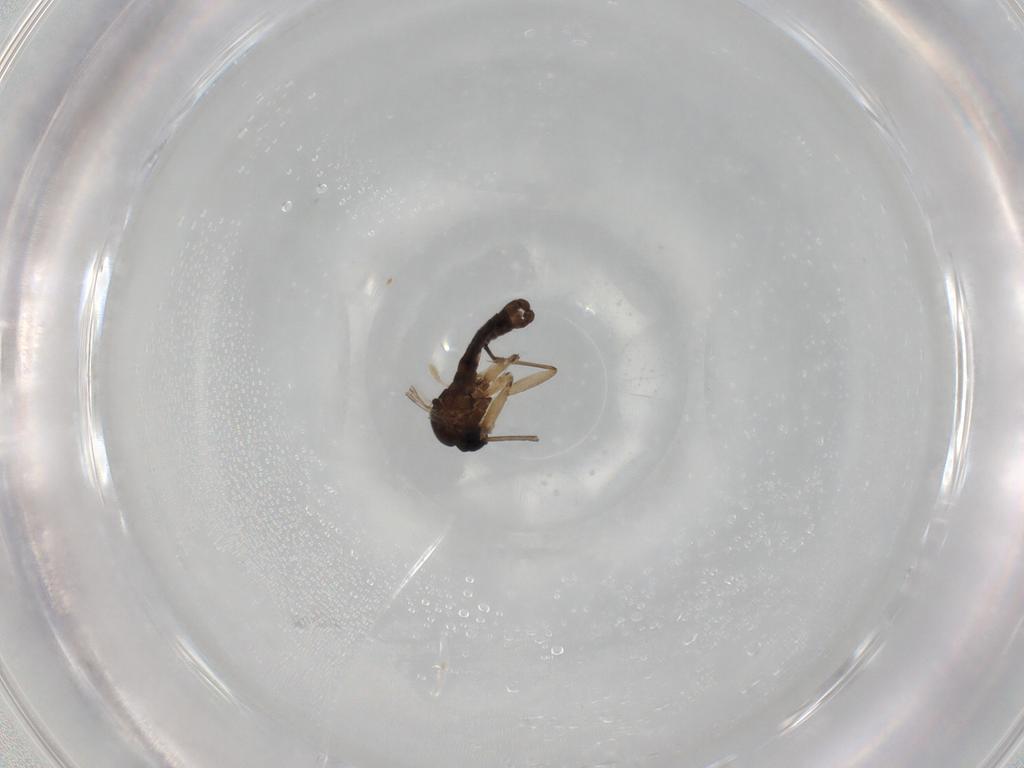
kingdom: Animalia
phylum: Arthropoda
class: Insecta
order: Diptera
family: Sciaridae
